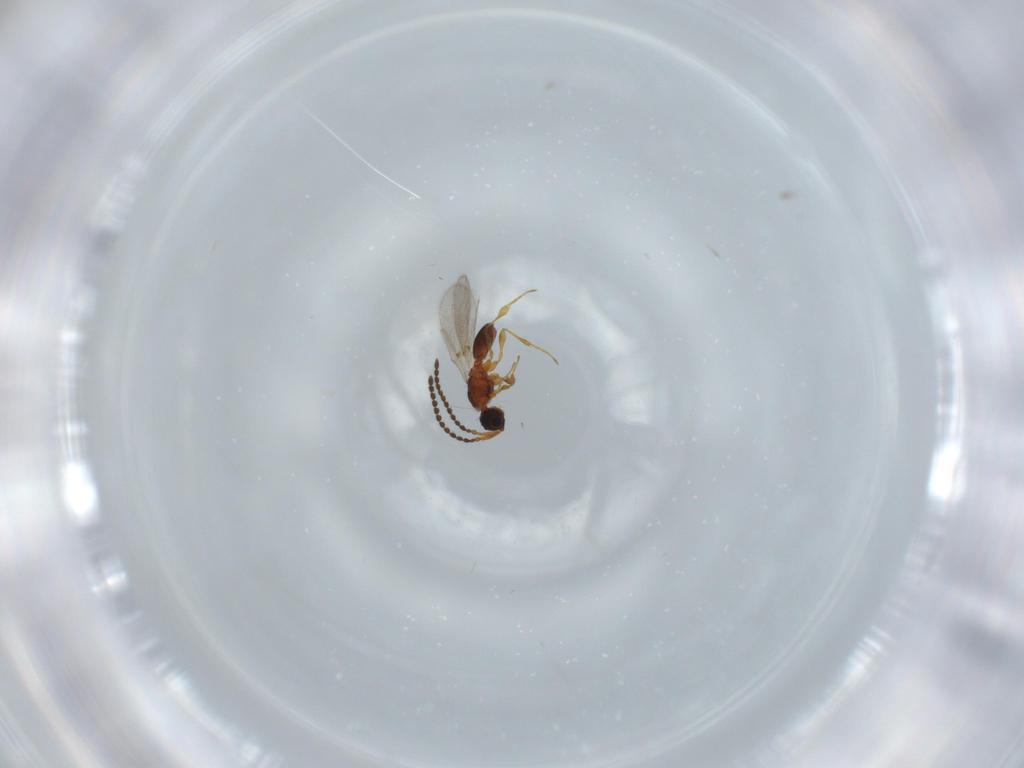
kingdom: Animalia
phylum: Arthropoda
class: Insecta
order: Hymenoptera
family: Diapriidae
